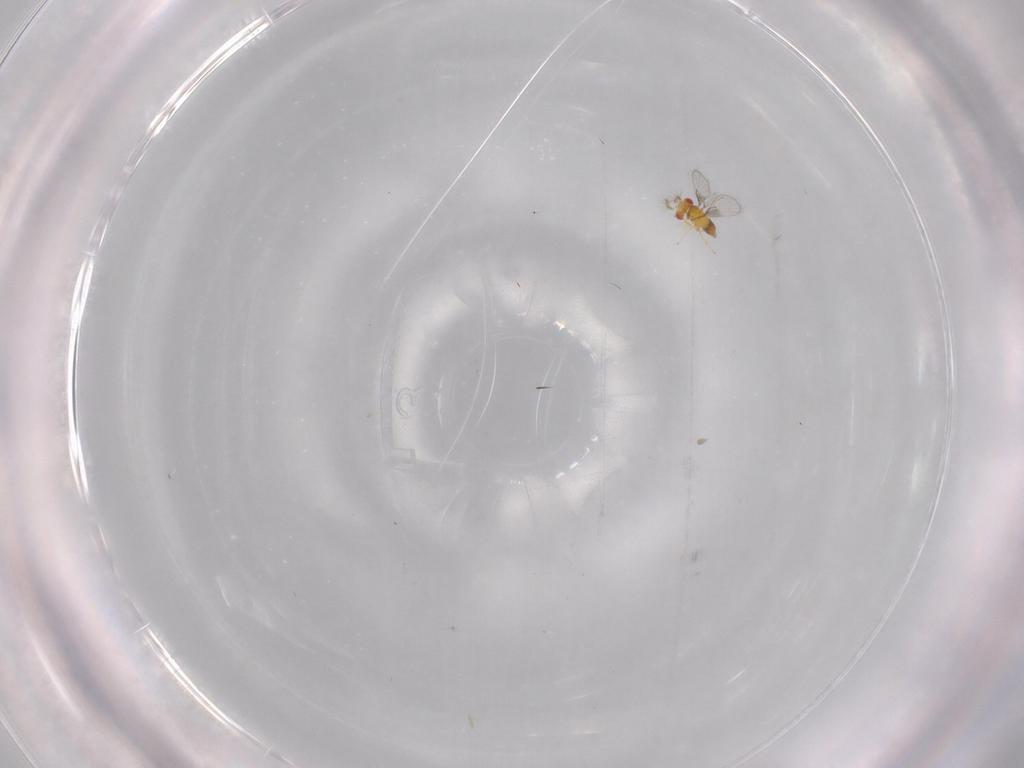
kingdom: Animalia
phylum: Arthropoda
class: Insecta
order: Hymenoptera
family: Trichogrammatidae
